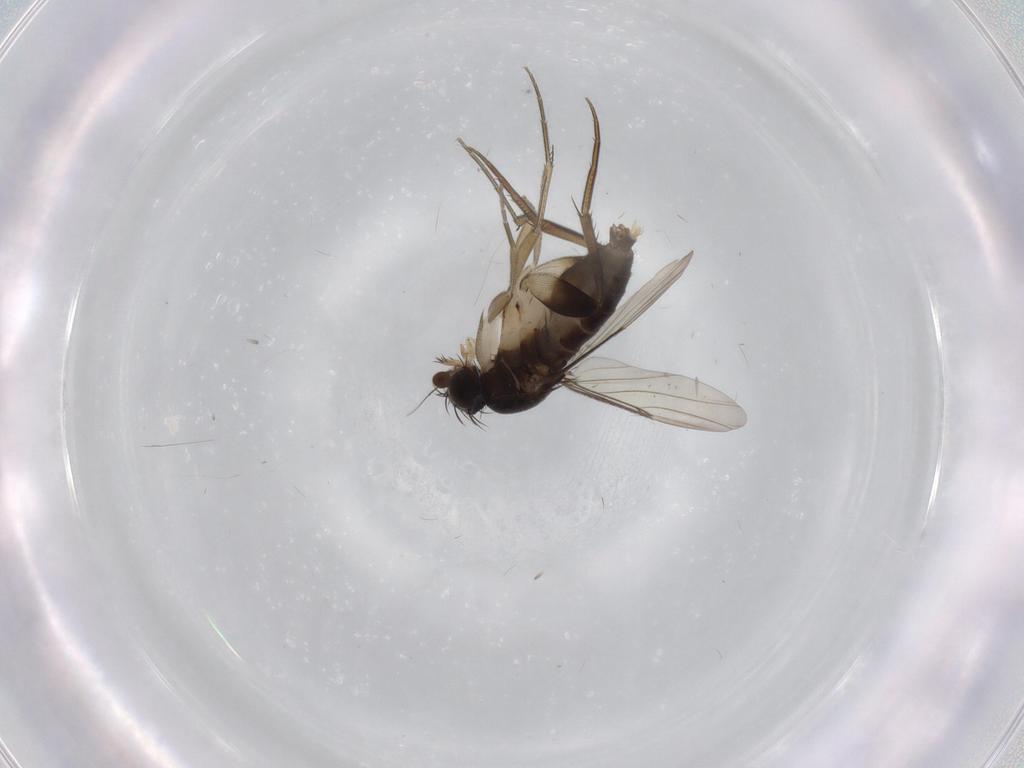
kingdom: Animalia
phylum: Arthropoda
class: Insecta
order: Diptera
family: Phoridae
